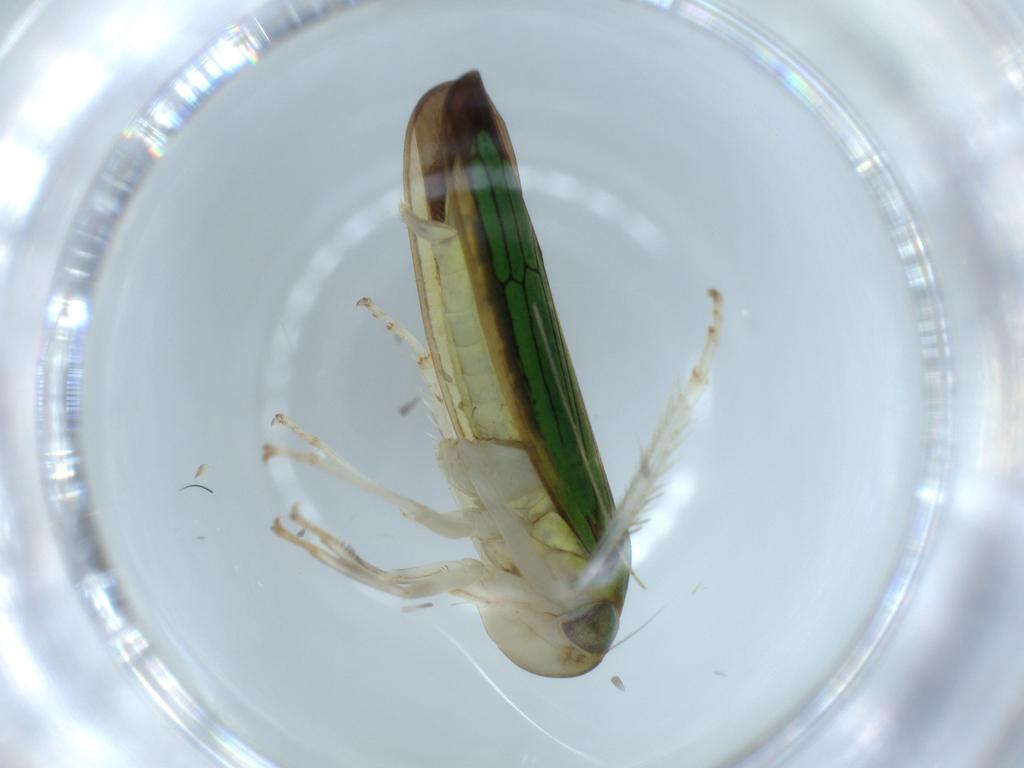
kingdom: Animalia
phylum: Arthropoda
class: Insecta
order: Hemiptera
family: Cicadellidae
